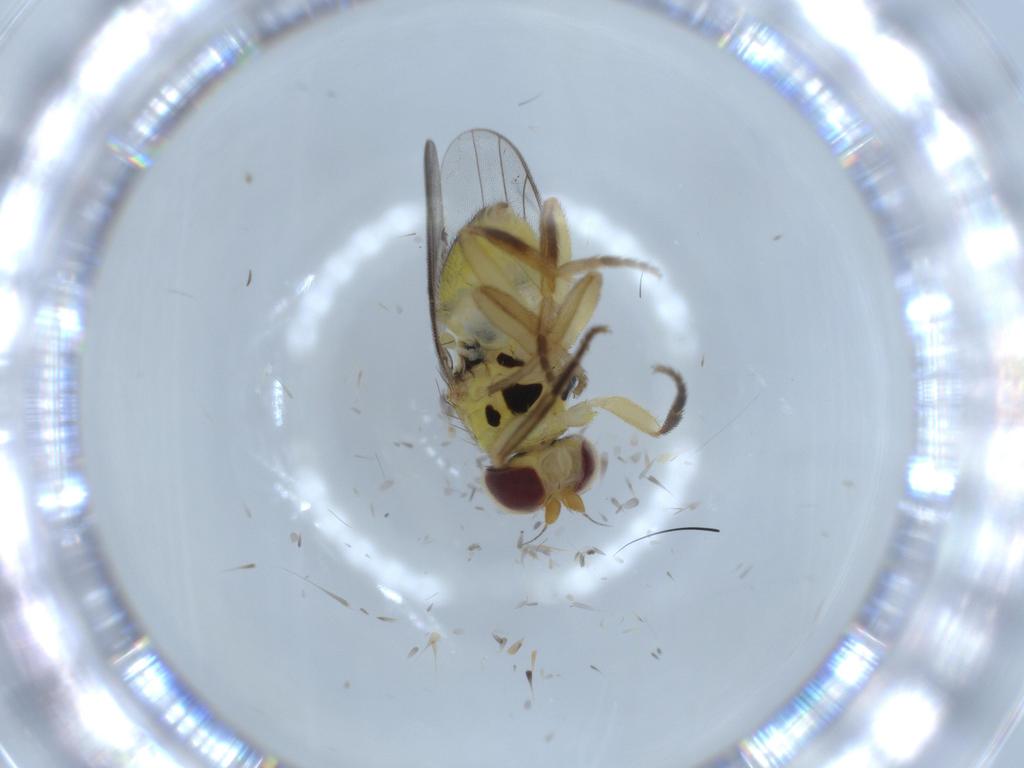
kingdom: Animalia
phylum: Arthropoda
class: Insecta
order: Diptera
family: Chloropidae
